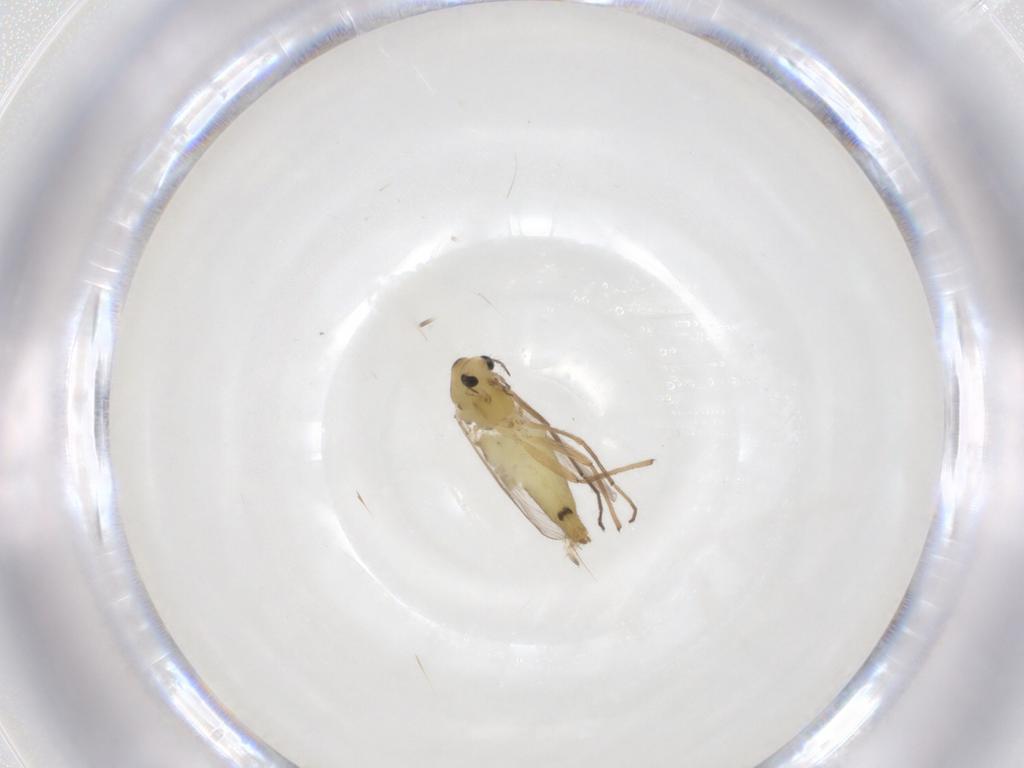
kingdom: Animalia
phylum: Arthropoda
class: Insecta
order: Diptera
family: Chironomidae
